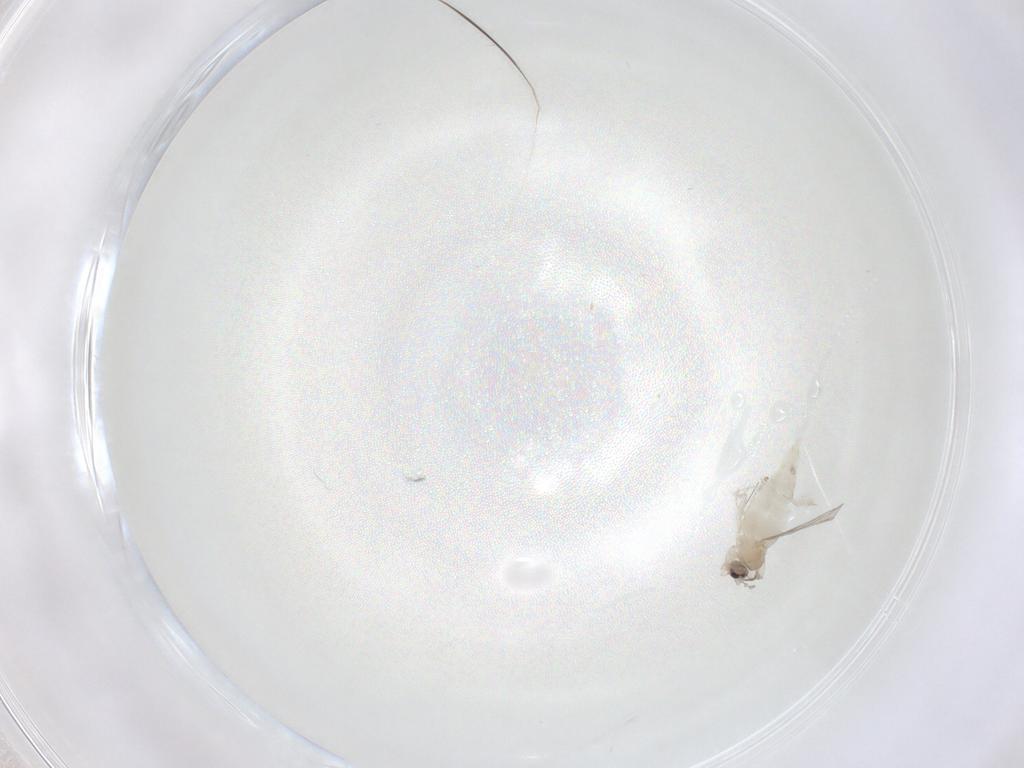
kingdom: Animalia
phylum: Arthropoda
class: Insecta
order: Diptera
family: Cecidomyiidae
